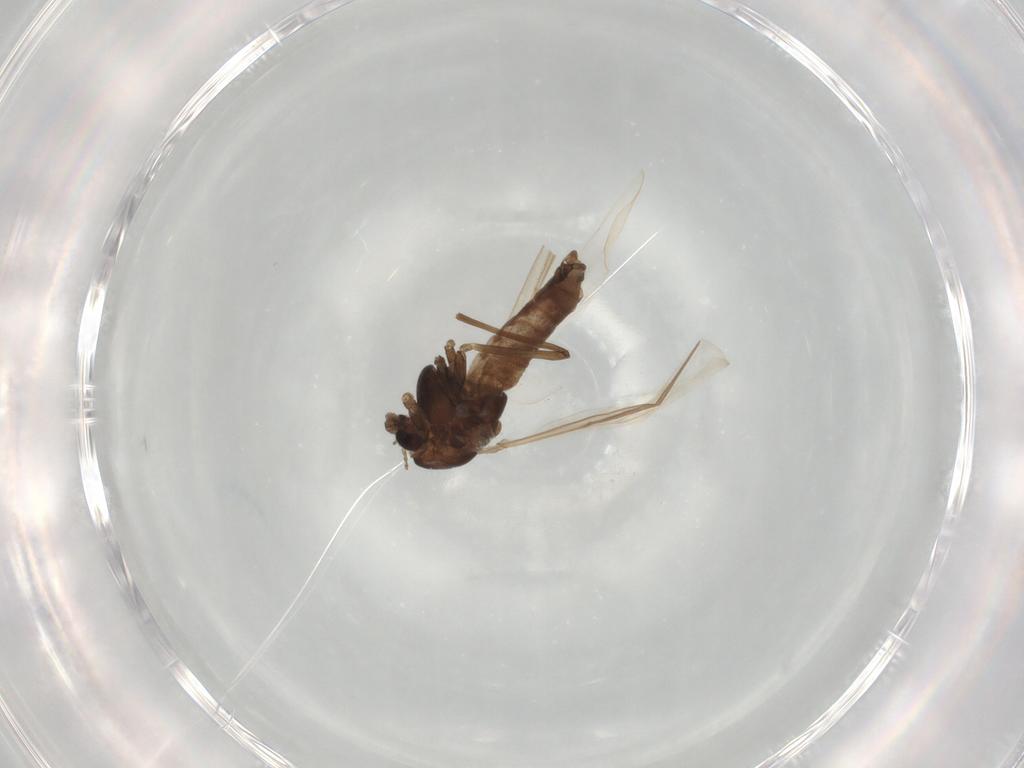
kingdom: Animalia
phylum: Arthropoda
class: Insecta
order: Diptera
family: Chironomidae
